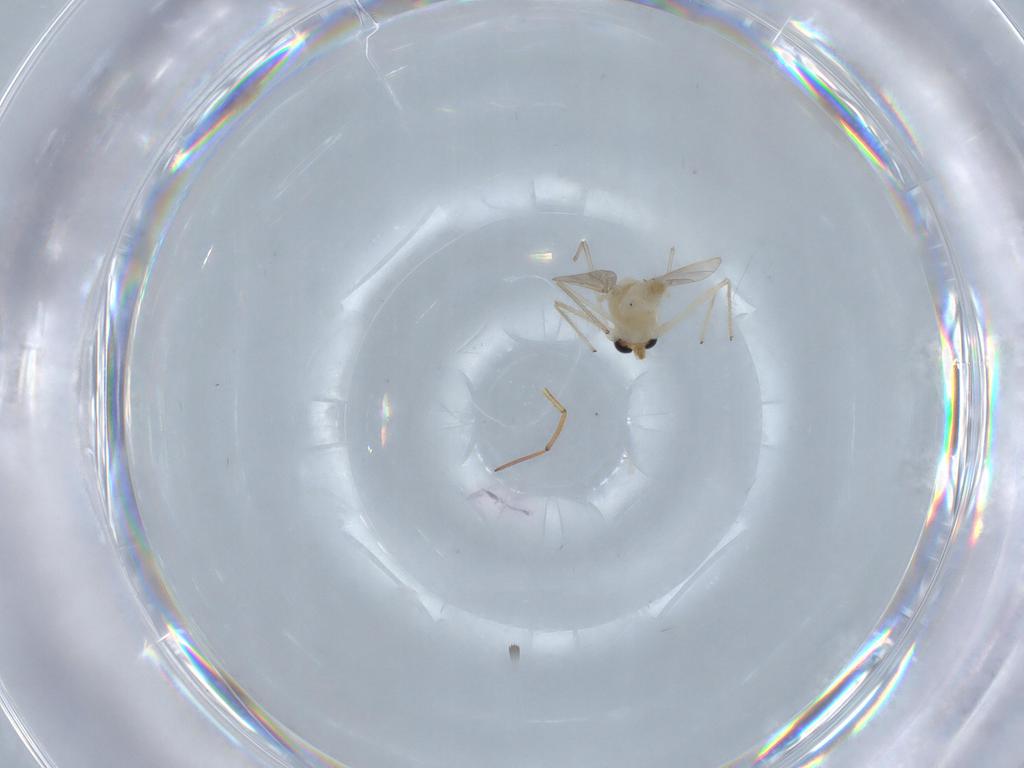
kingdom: Animalia
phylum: Arthropoda
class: Insecta
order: Diptera
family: Chironomidae
